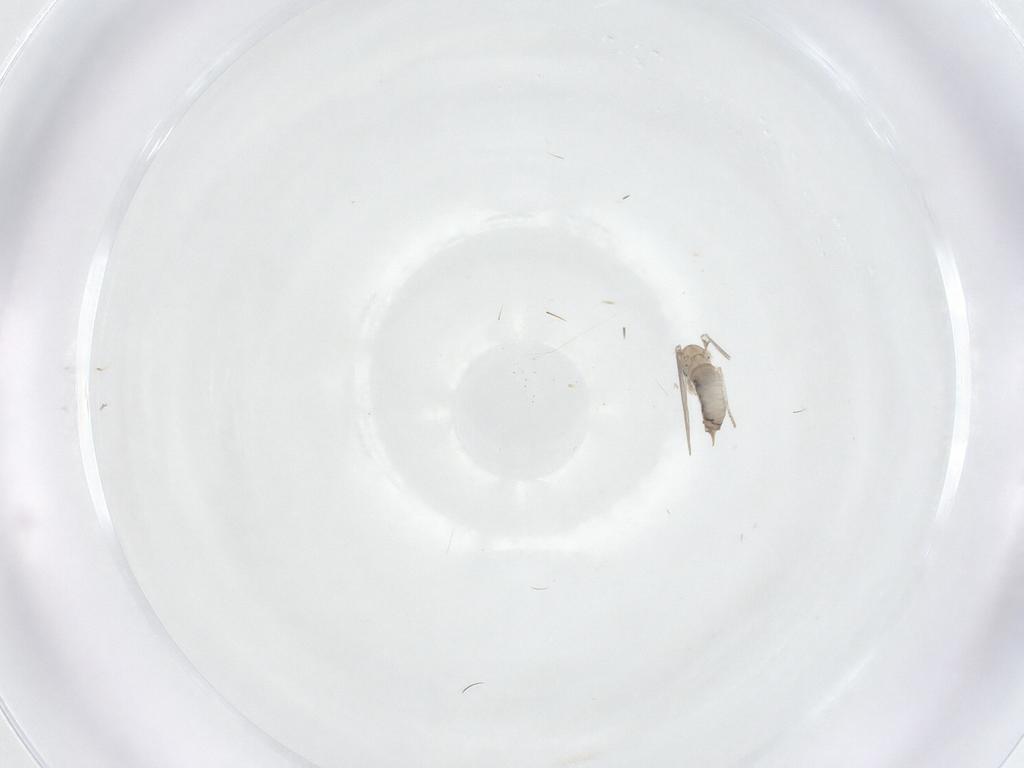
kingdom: Animalia
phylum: Arthropoda
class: Insecta
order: Diptera
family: Psychodidae
